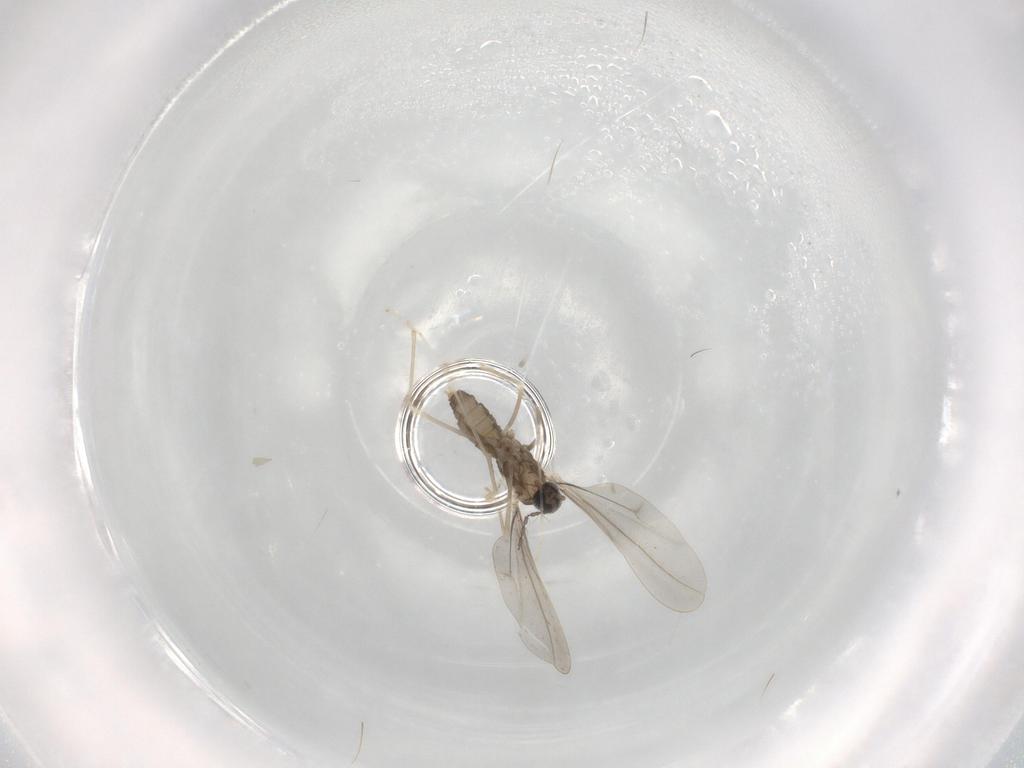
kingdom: Animalia
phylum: Arthropoda
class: Insecta
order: Diptera
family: Cecidomyiidae
